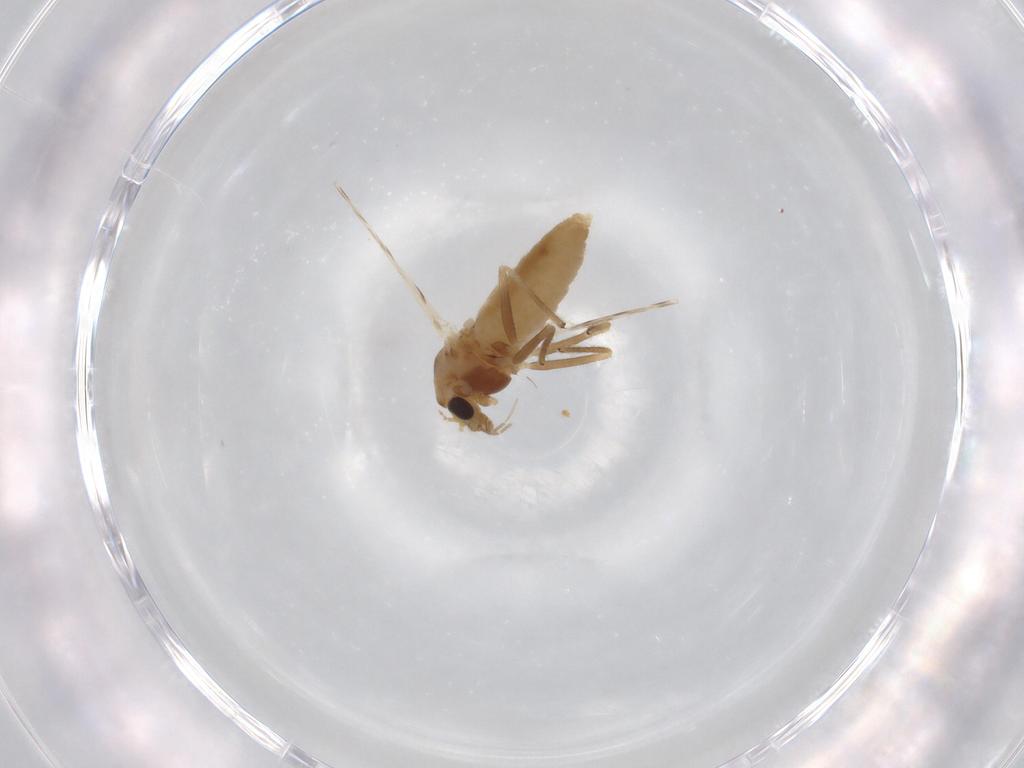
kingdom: Animalia
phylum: Arthropoda
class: Insecta
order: Diptera
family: Chironomidae
